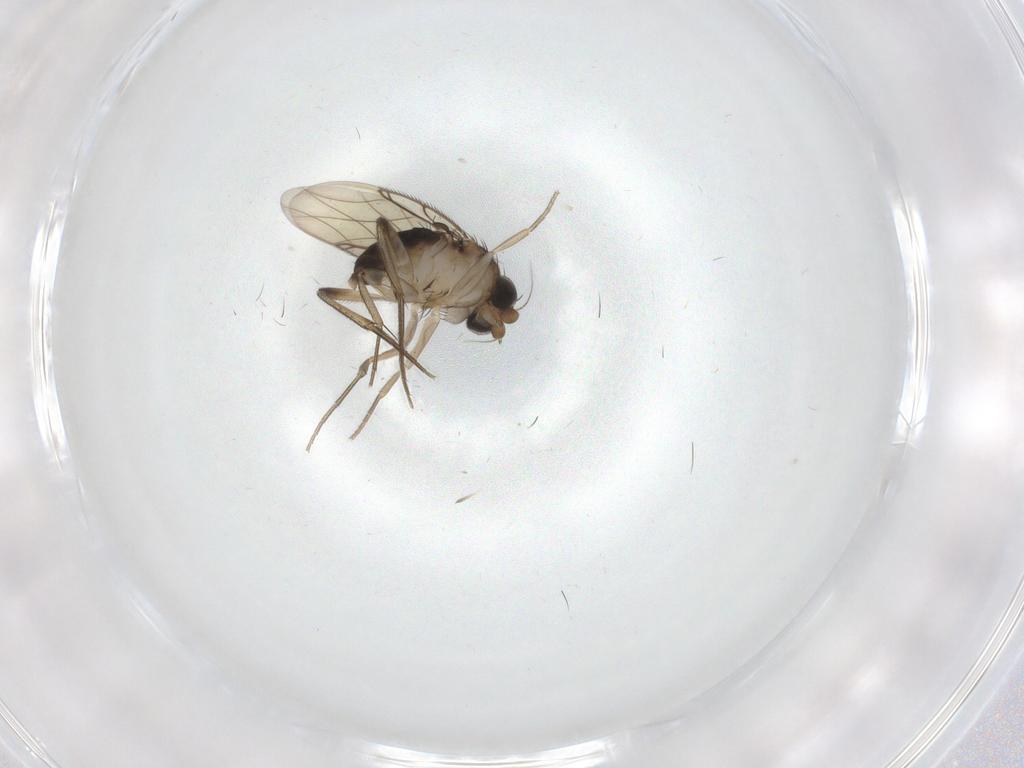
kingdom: Animalia
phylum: Arthropoda
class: Insecta
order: Diptera
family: Phoridae
